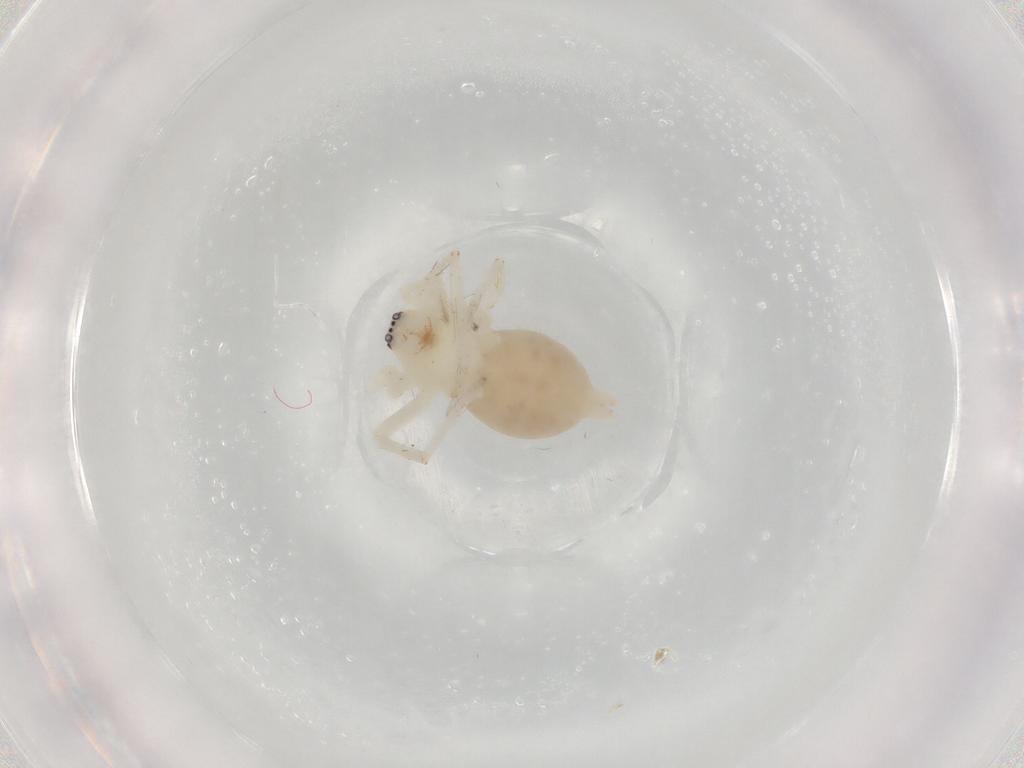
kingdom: Animalia
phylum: Arthropoda
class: Arachnida
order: Araneae
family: Anyphaenidae
